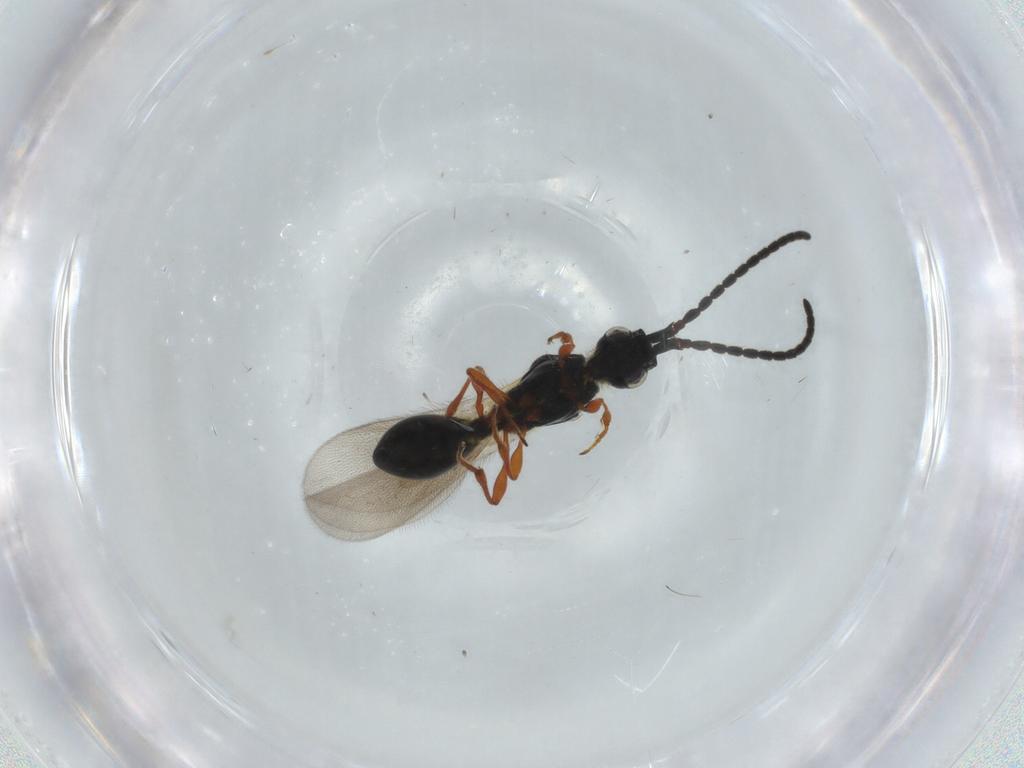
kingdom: Animalia
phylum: Arthropoda
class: Insecta
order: Hymenoptera
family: Diapriidae
